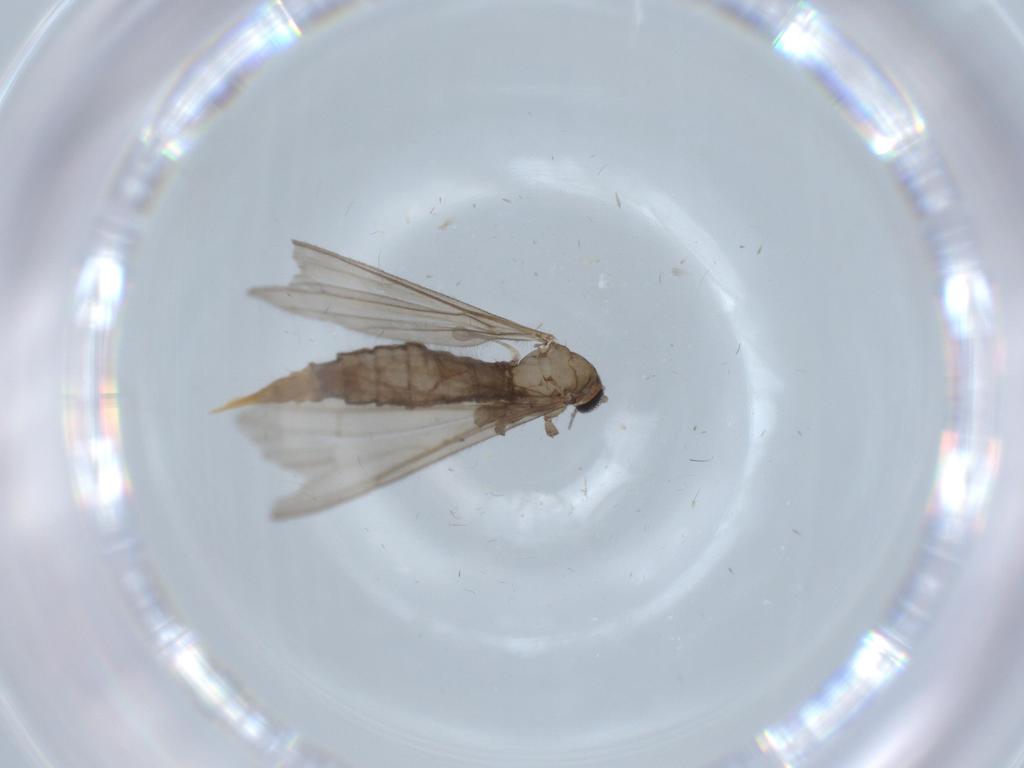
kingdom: Animalia
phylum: Arthropoda
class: Insecta
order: Diptera
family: Limoniidae
